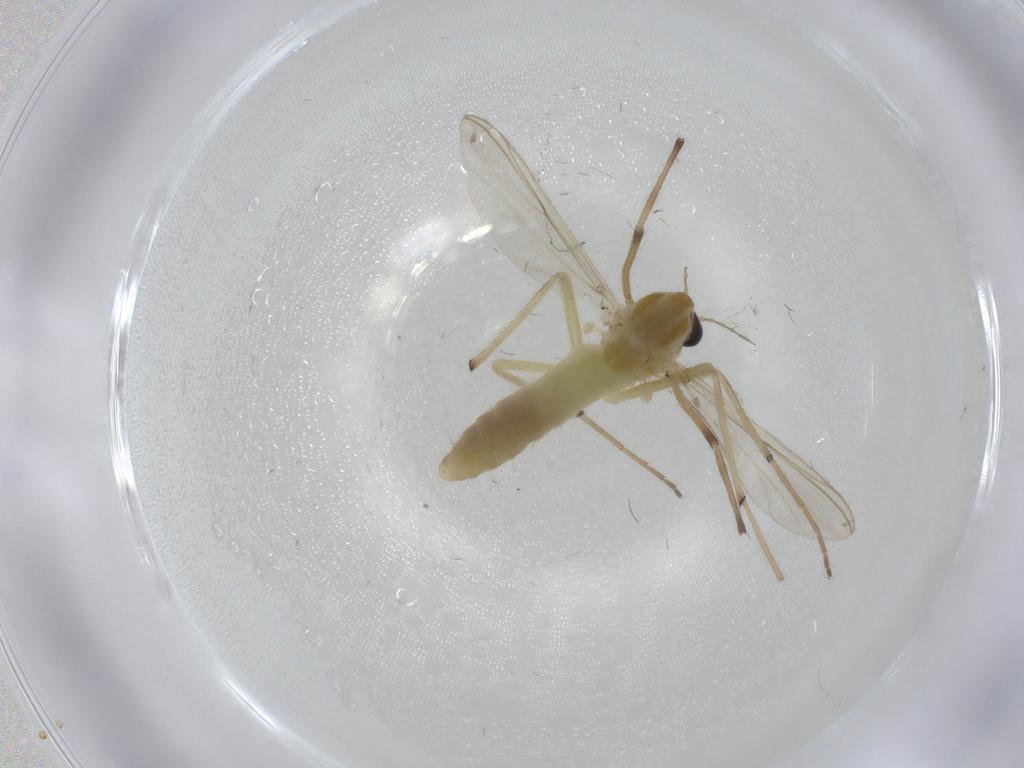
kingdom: Animalia
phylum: Arthropoda
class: Insecta
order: Diptera
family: Chironomidae
